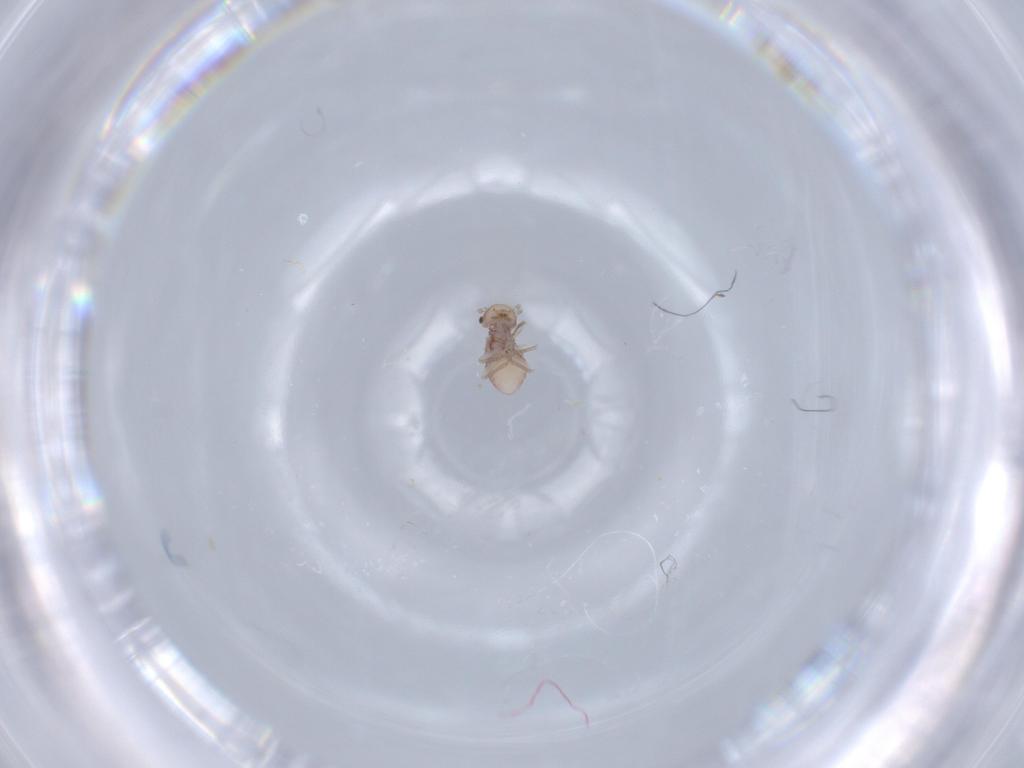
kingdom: Animalia
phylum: Arthropoda
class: Insecta
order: Psocodea
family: Ectopsocidae
